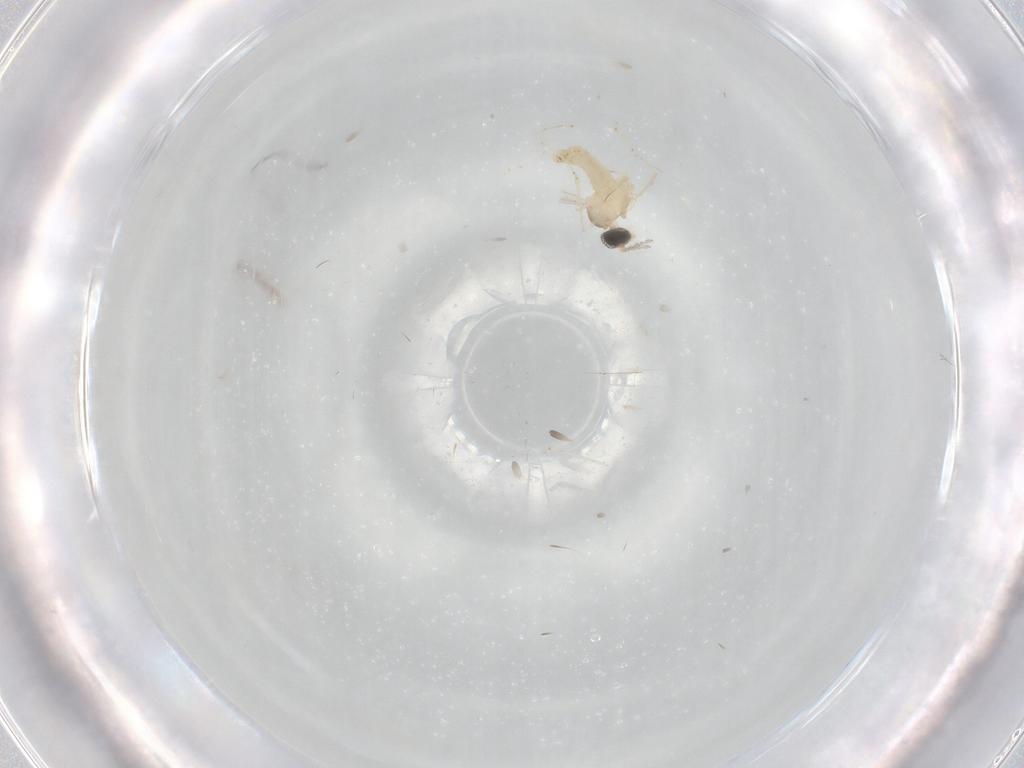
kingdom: Animalia
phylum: Arthropoda
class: Insecta
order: Diptera
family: Cecidomyiidae
